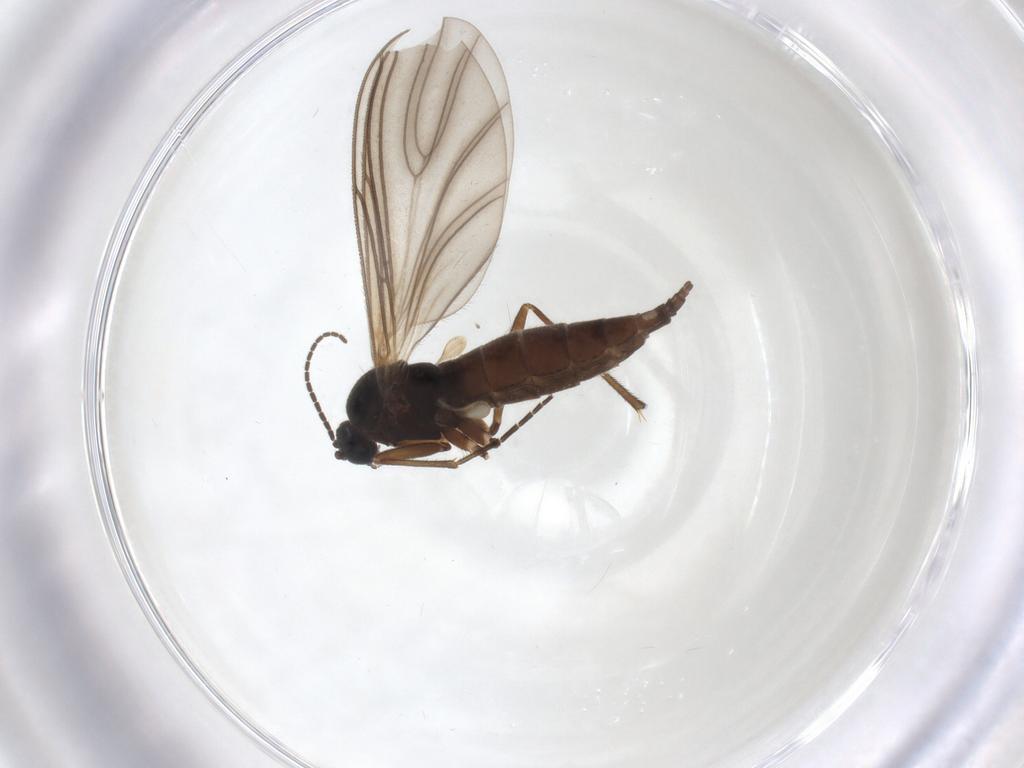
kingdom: Animalia
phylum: Arthropoda
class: Insecta
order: Diptera
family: Sciaridae
